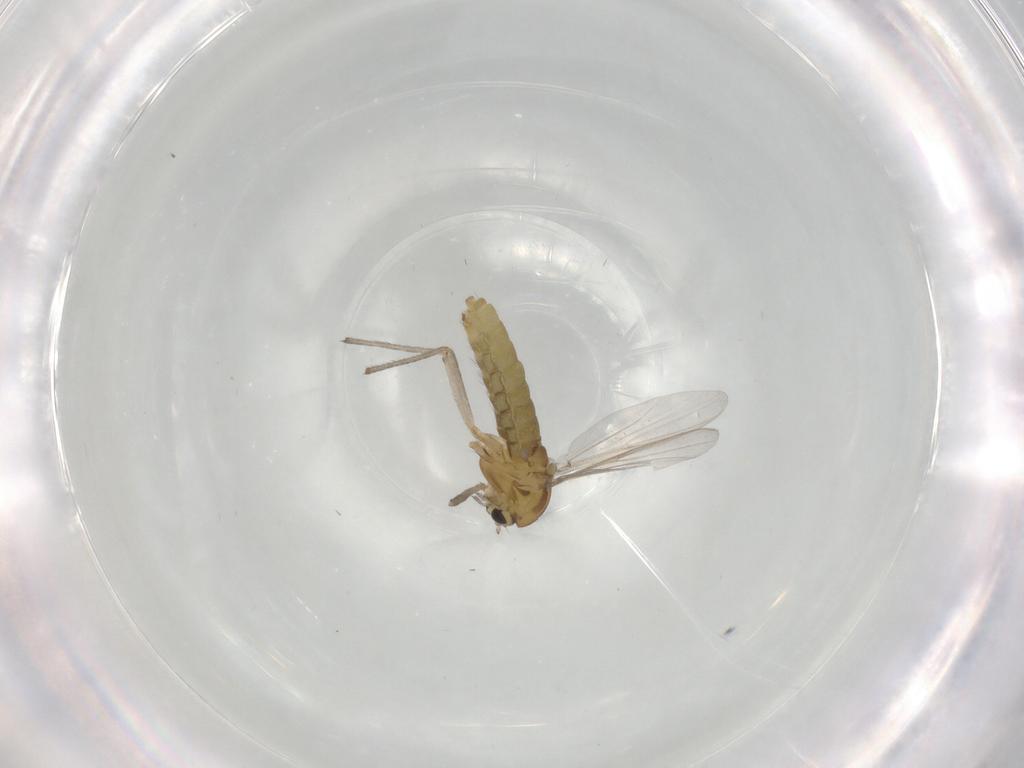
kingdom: Animalia
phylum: Arthropoda
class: Insecta
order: Diptera
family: Chironomidae
